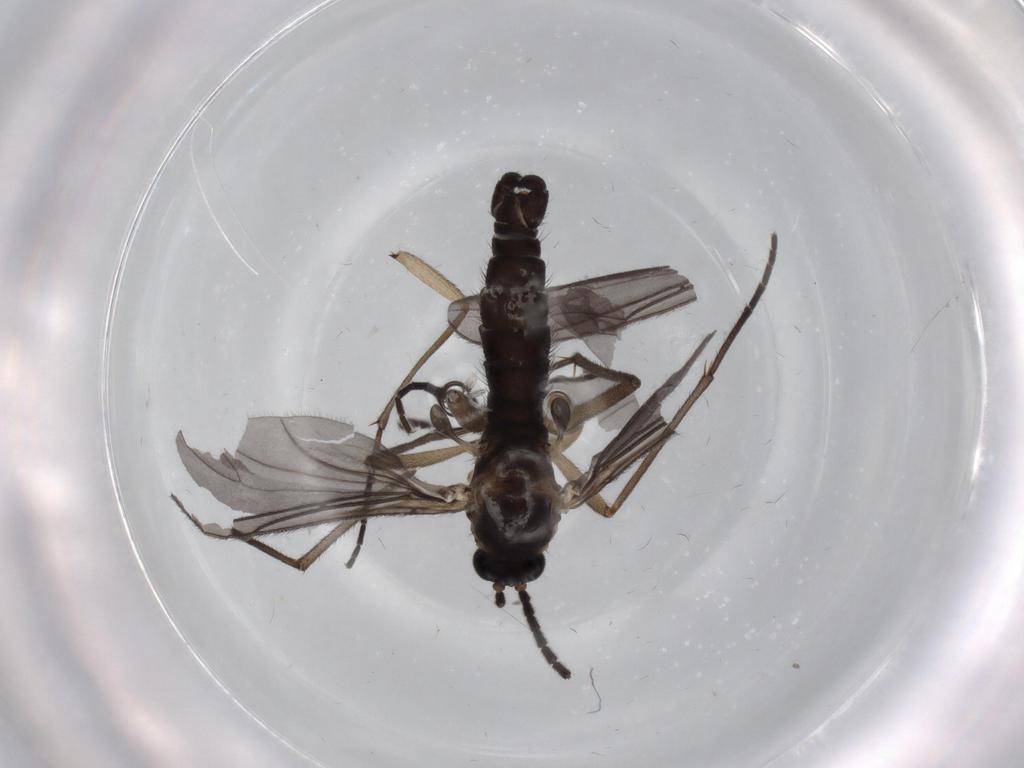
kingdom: Animalia
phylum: Arthropoda
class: Insecta
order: Diptera
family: Sciaridae
